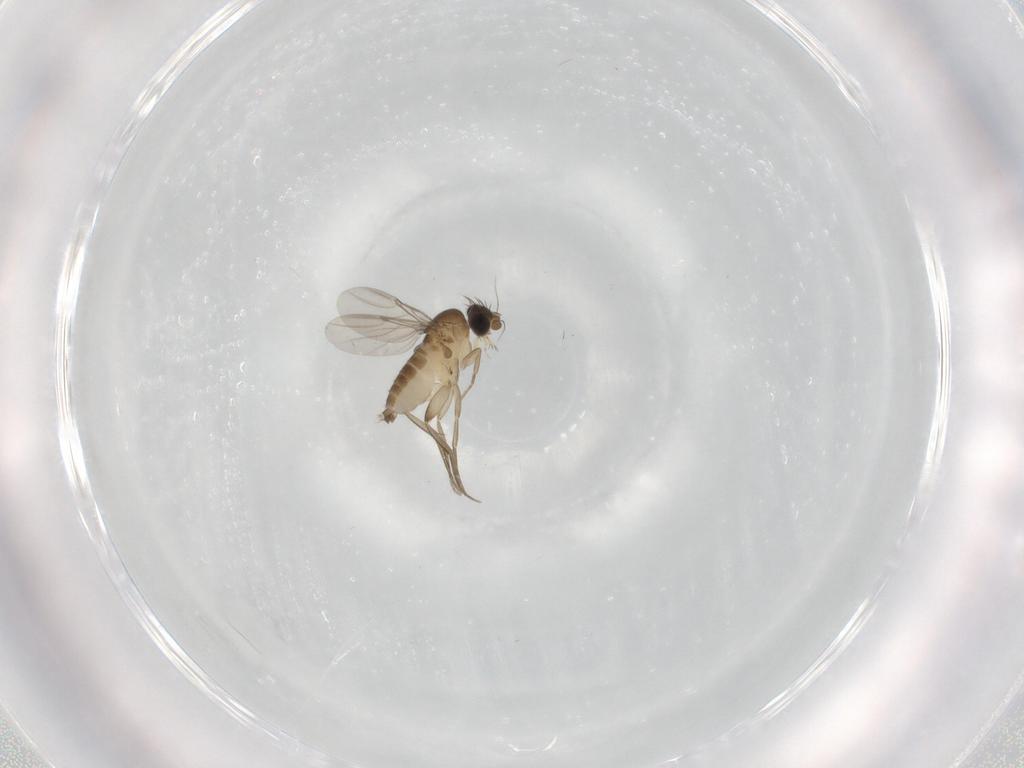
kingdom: Animalia
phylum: Arthropoda
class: Insecta
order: Diptera
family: Phoridae
